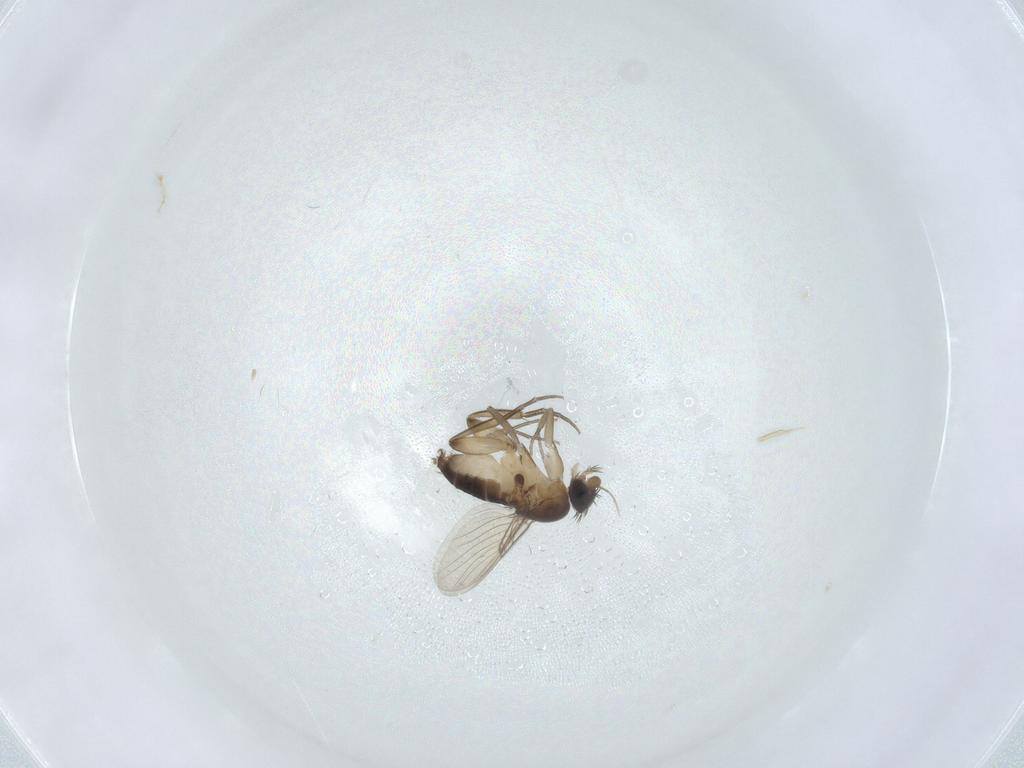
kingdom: Animalia
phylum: Arthropoda
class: Insecta
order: Diptera
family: Phoridae
